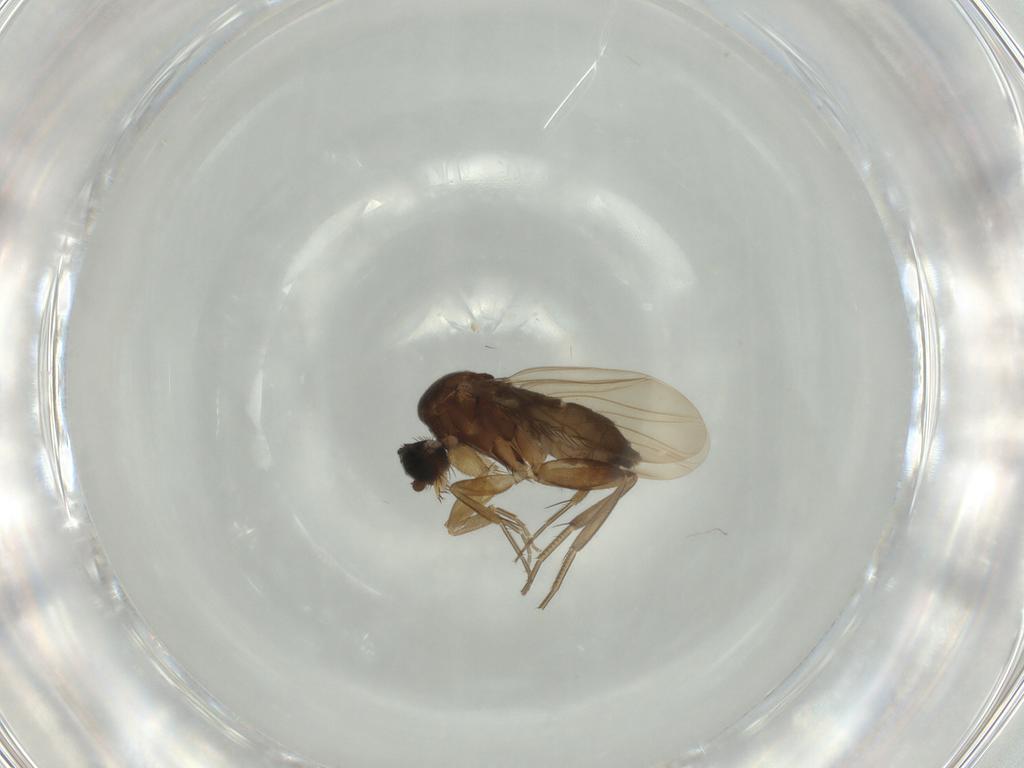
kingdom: Animalia
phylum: Arthropoda
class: Insecta
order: Diptera
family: Phoridae
